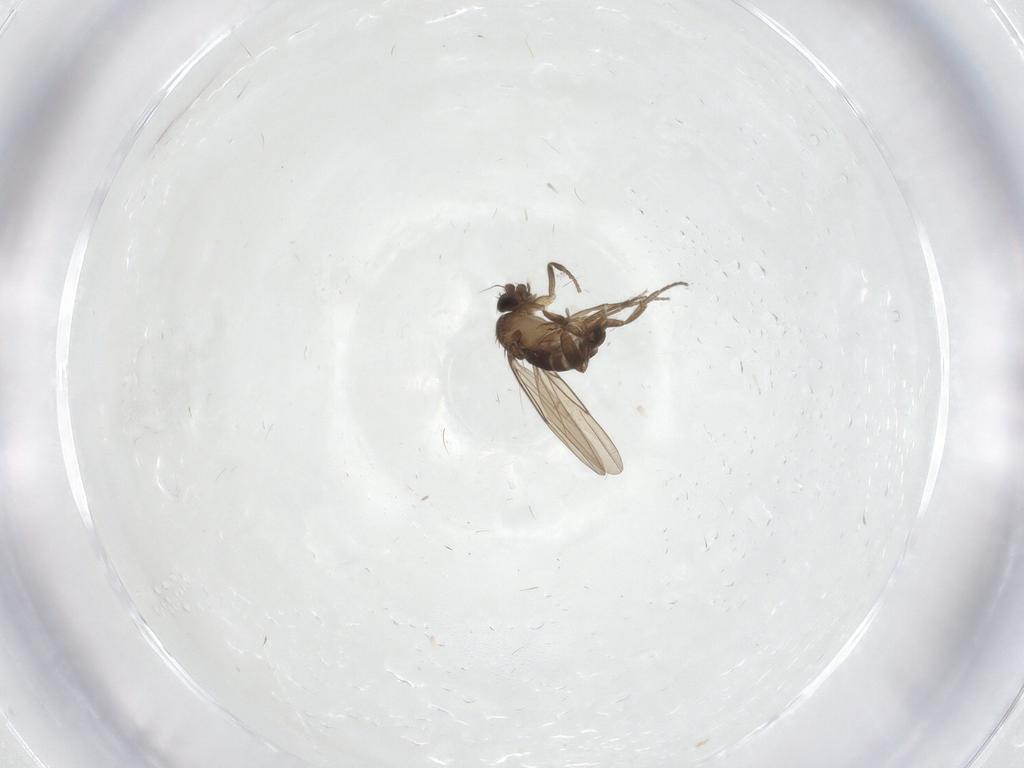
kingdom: Animalia
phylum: Arthropoda
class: Insecta
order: Diptera
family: Phoridae
